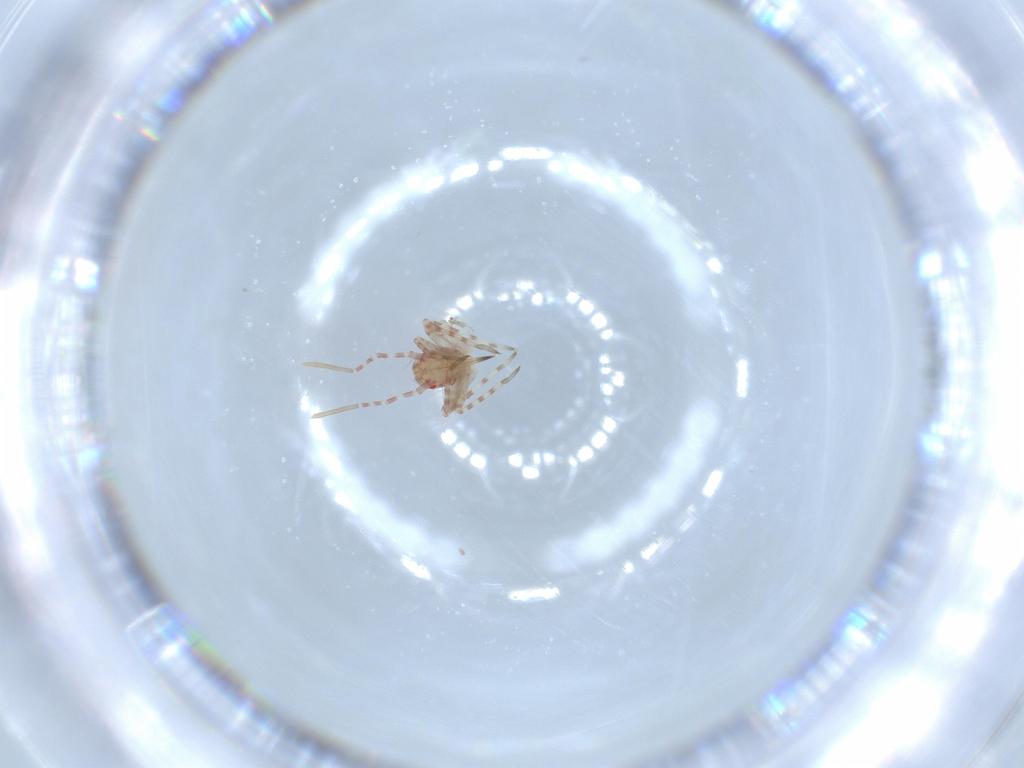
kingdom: Animalia
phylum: Arthropoda
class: Insecta
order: Hemiptera
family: Miridae
